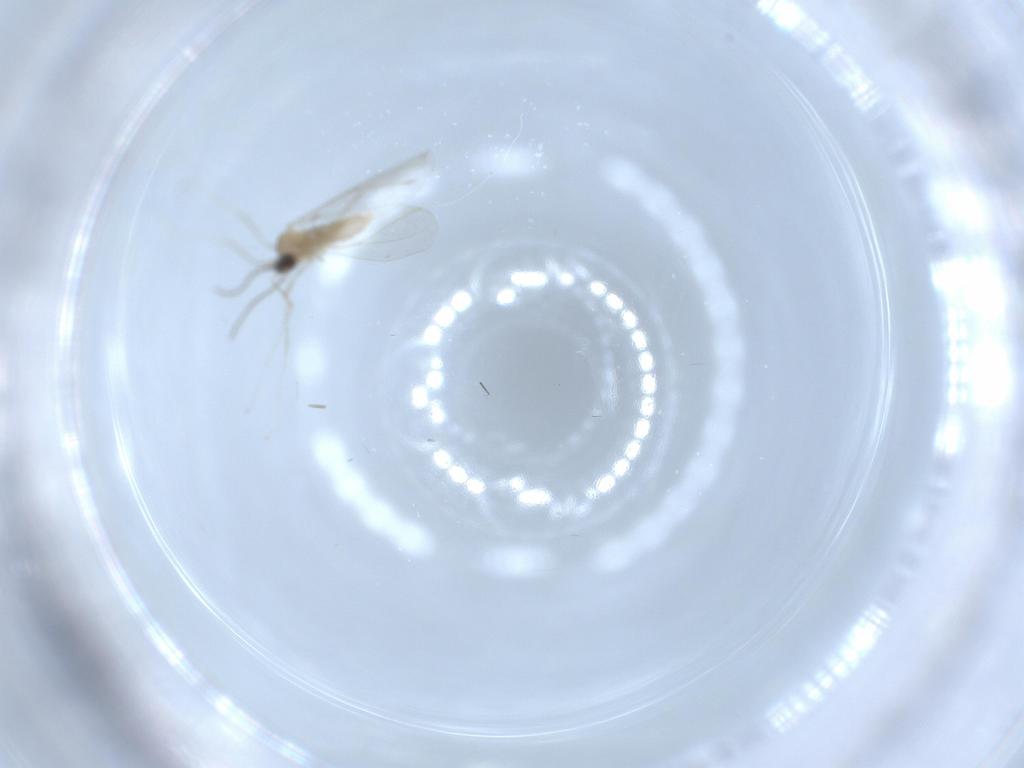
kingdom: Animalia
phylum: Arthropoda
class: Insecta
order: Diptera
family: Cecidomyiidae
